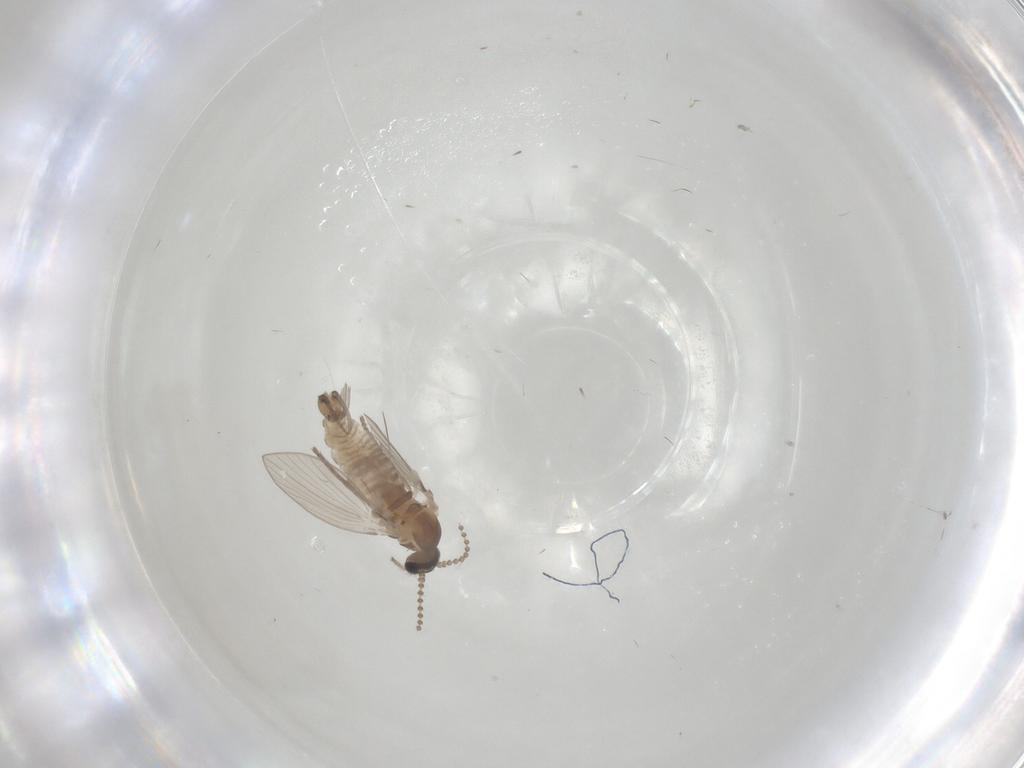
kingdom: Animalia
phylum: Arthropoda
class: Insecta
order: Diptera
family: Psychodidae
